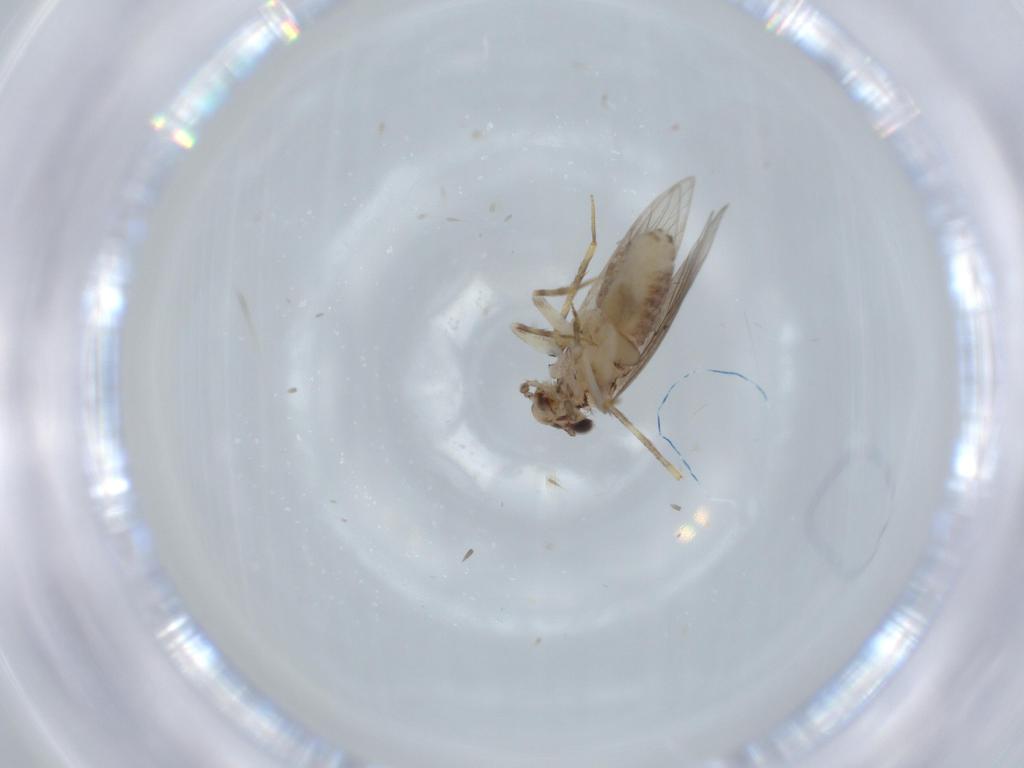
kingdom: Animalia
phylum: Arthropoda
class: Insecta
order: Psocodea
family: Lepidopsocidae
